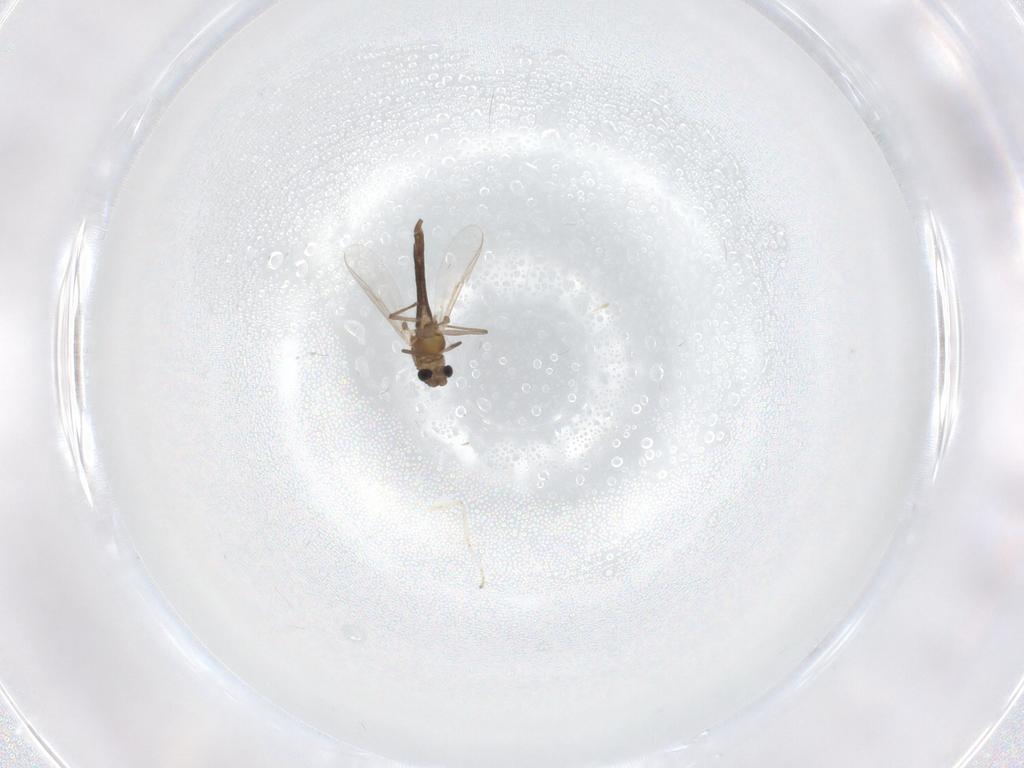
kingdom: Animalia
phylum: Arthropoda
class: Insecta
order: Diptera
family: Chironomidae
